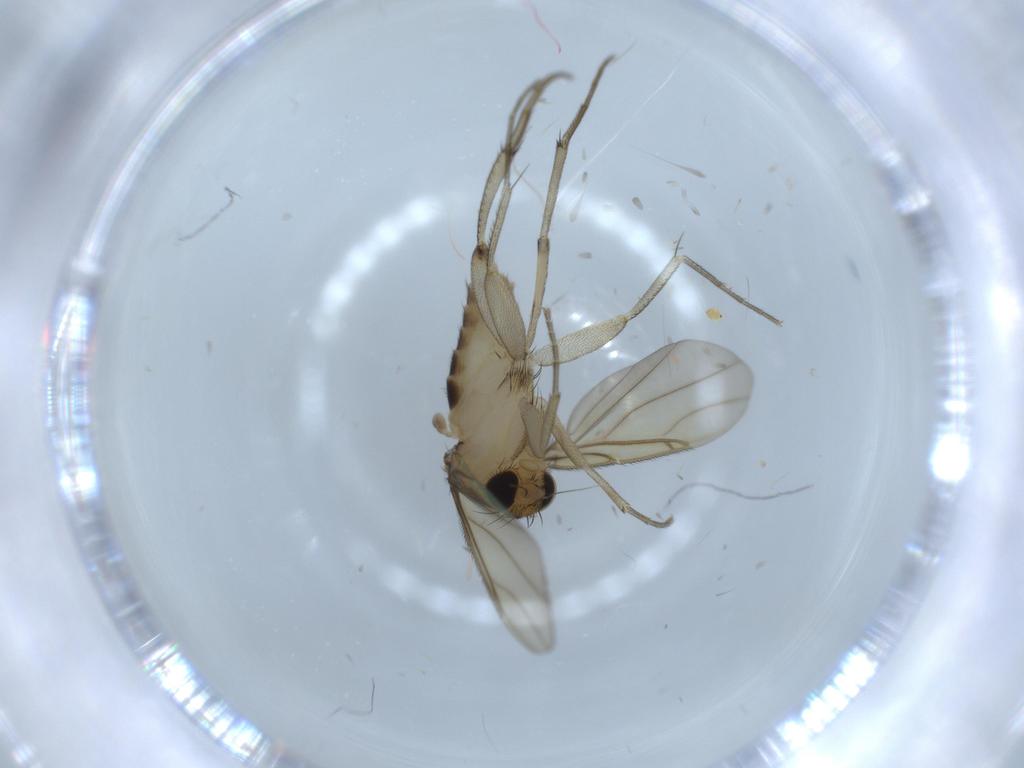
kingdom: Animalia
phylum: Arthropoda
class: Insecta
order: Diptera
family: Phoridae
